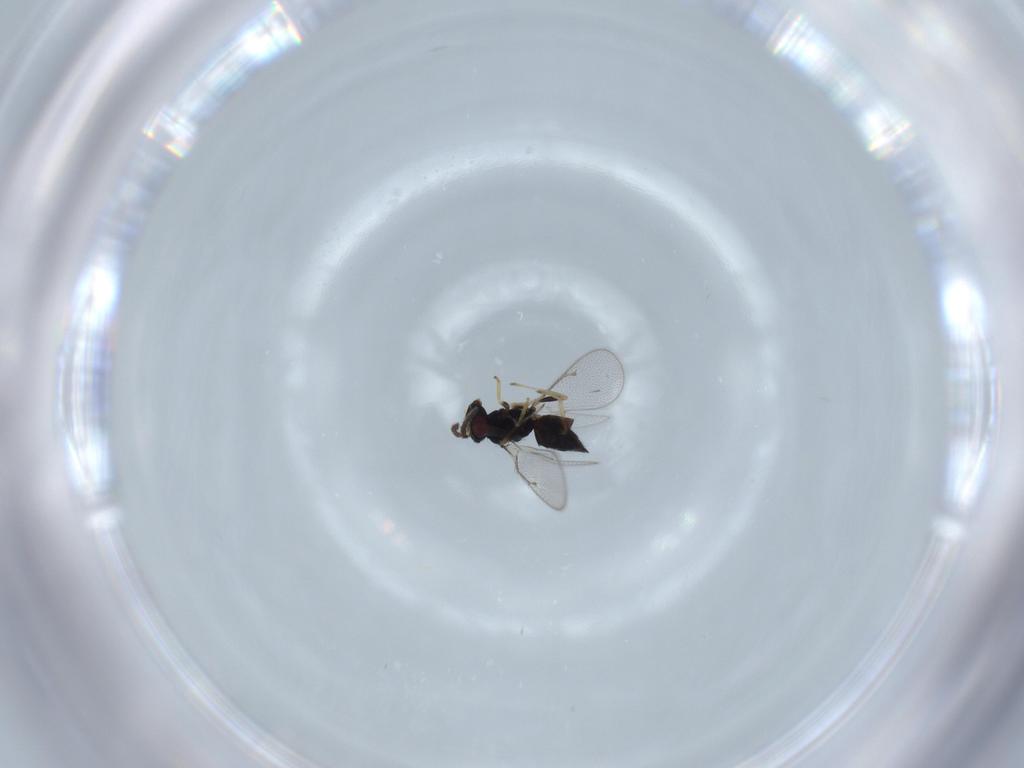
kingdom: Animalia
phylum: Arthropoda
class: Insecta
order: Hymenoptera
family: Eulophidae
